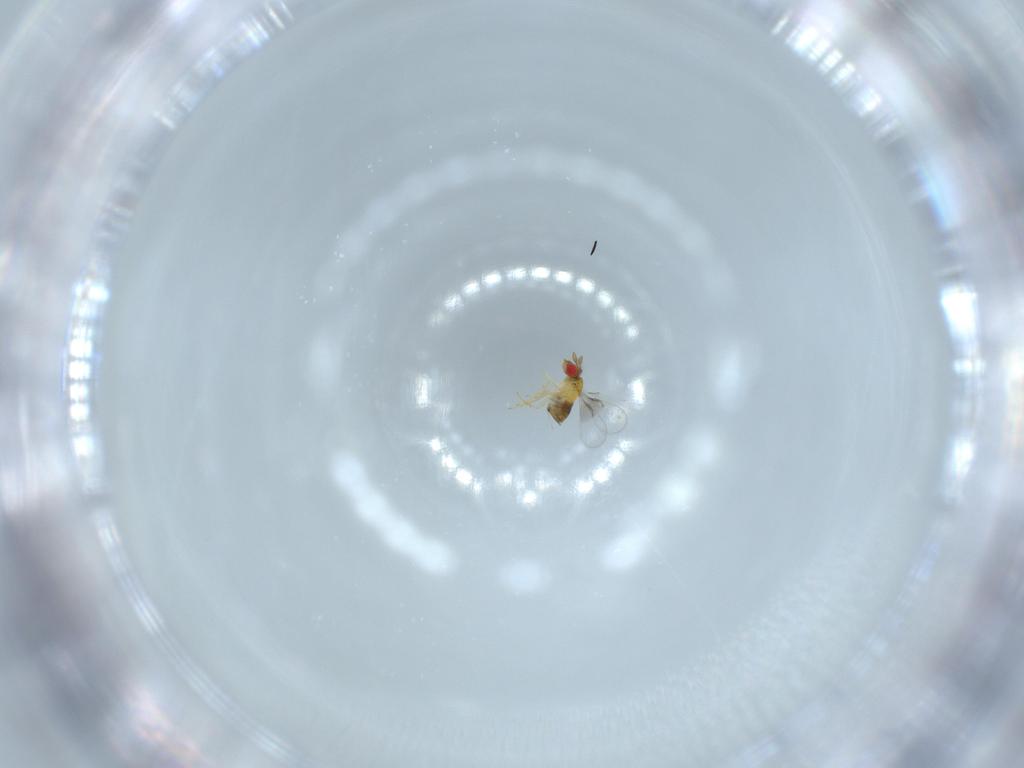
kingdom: Animalia
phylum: Arthropoda
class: Insecta
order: Hymenoptera
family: Trichogrammatidae
